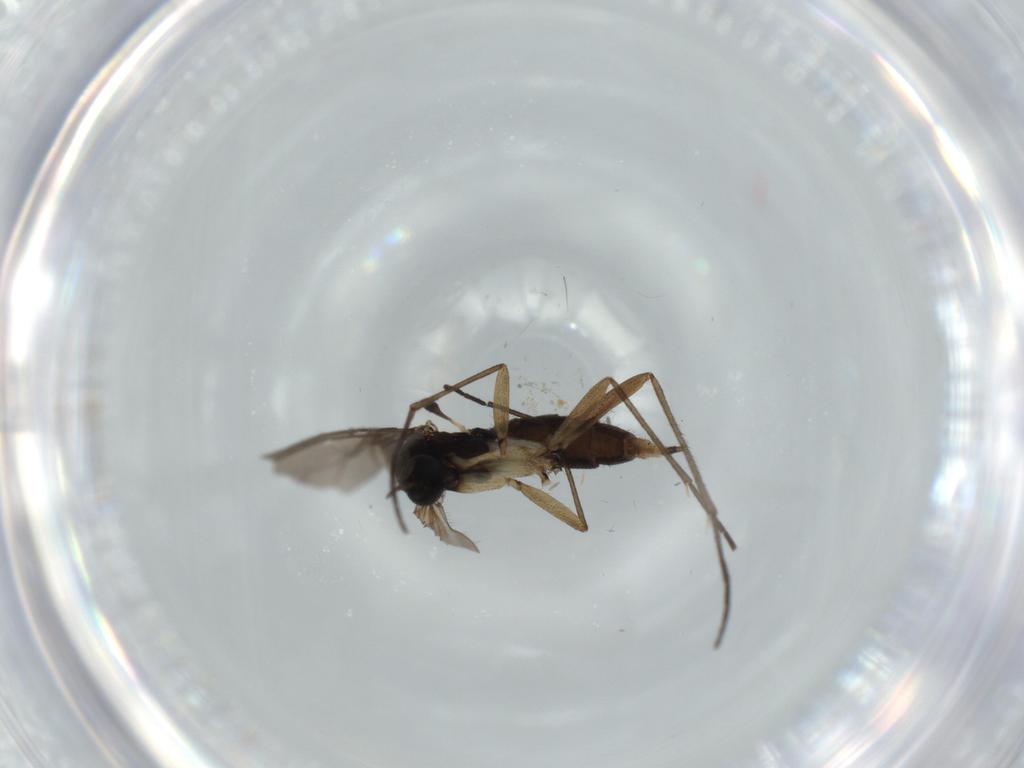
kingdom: Animalia
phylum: Arthropoda
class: Insecta
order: Diptera
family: Sciaridae
